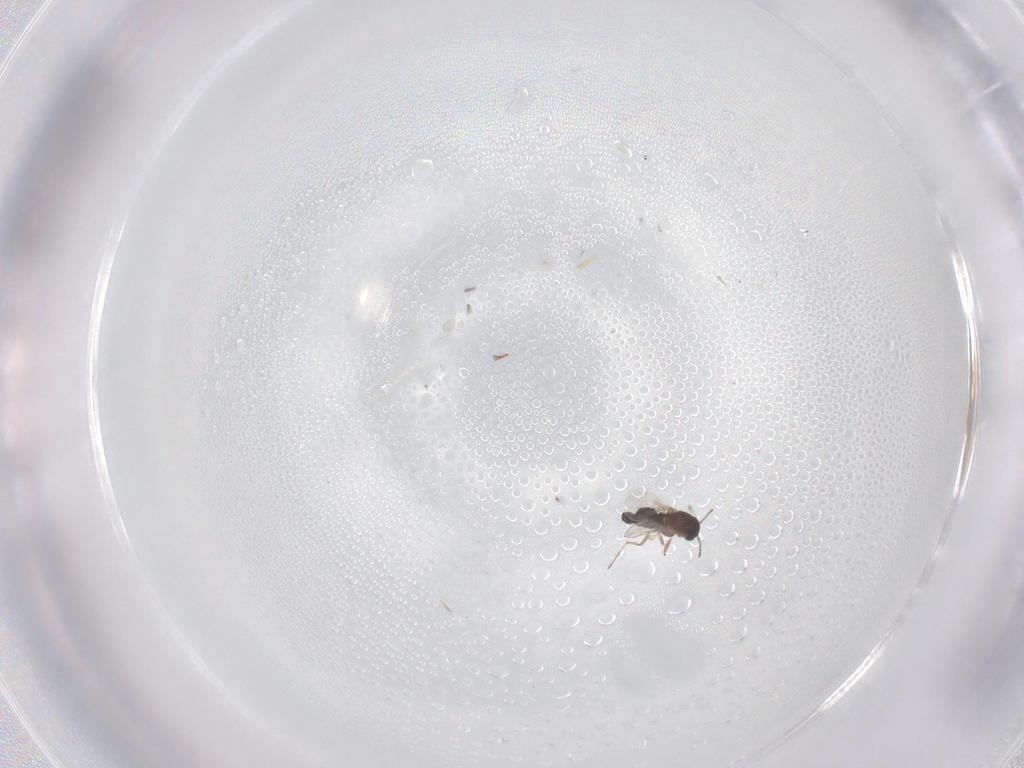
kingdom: Animalia
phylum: Arthropoda
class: Insecta
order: Diptera
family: Chironomidae
